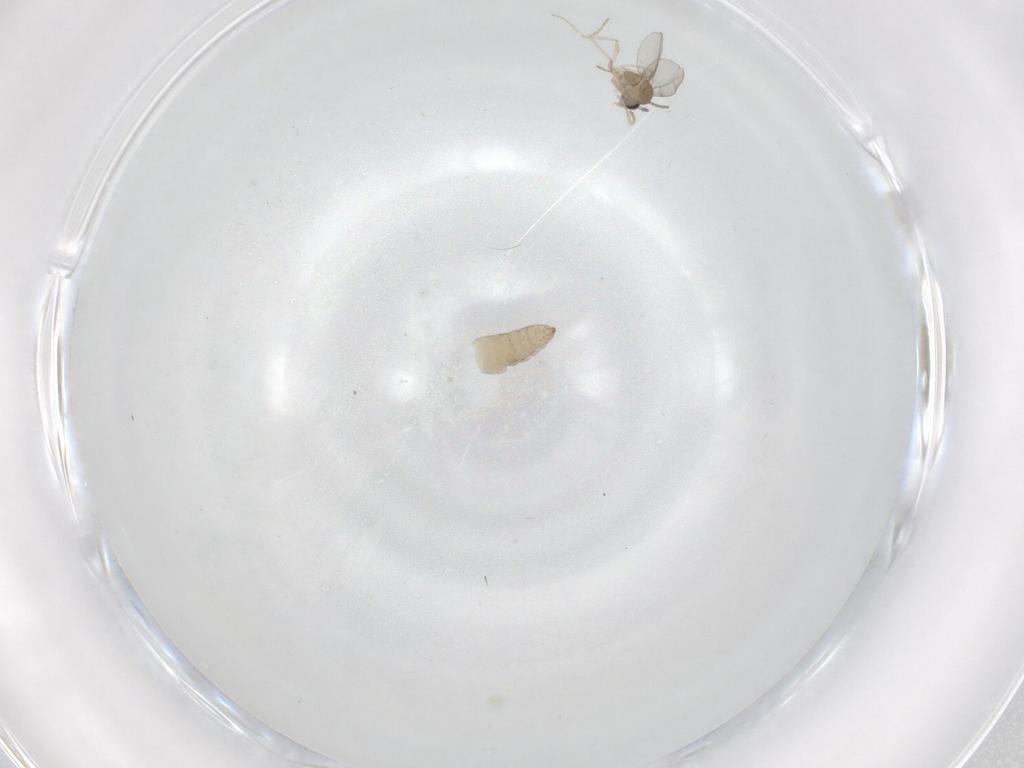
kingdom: Animalia
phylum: Arthropoda
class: Insecta
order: Diptera
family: Cecidomyiidae
